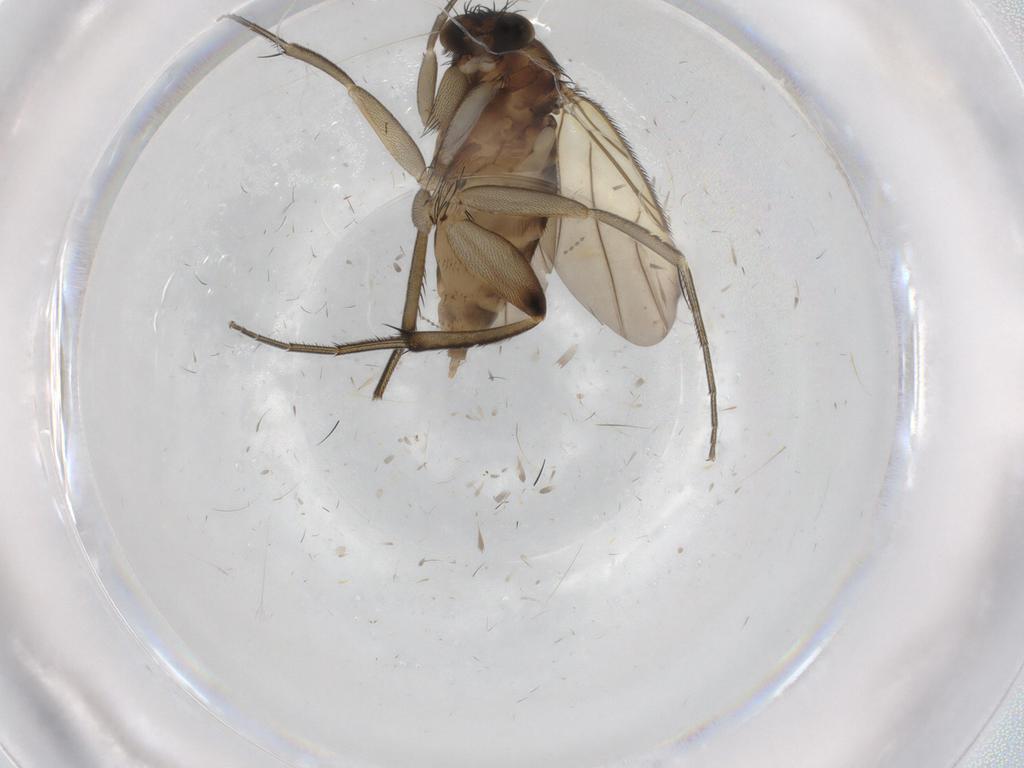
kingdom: Animalia
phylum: Arthropoda
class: Insecta
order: Diptera
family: Phoridae
